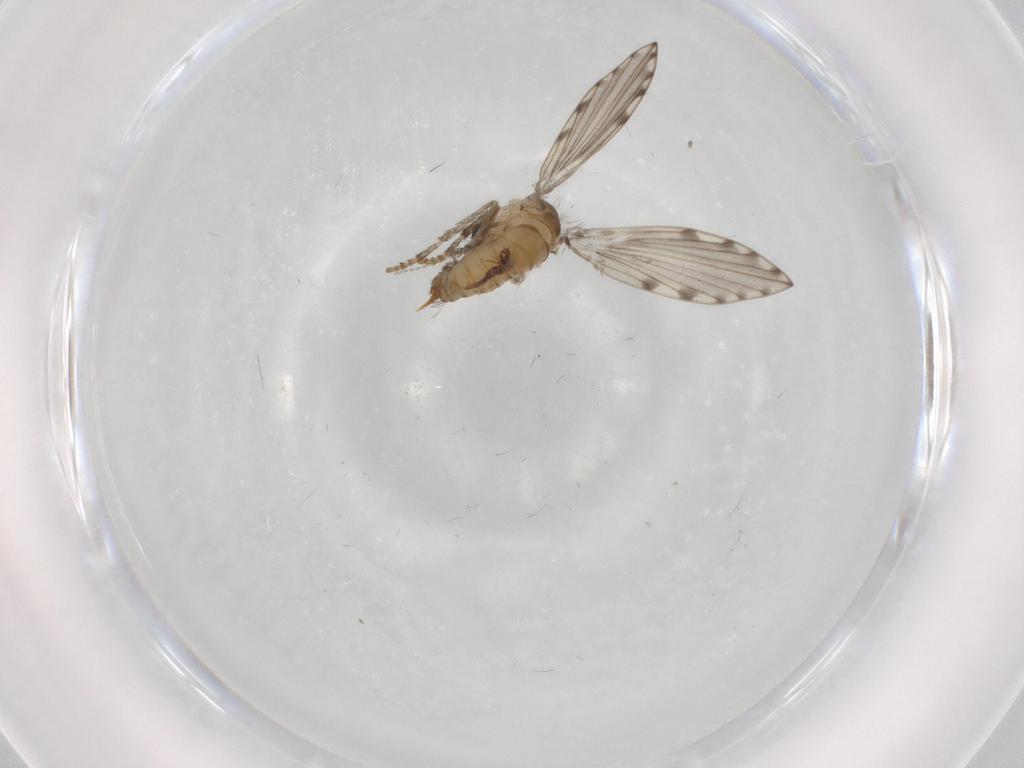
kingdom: Animalia
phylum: Arthropoda
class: Insecta
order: Diptera
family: Psychodidae
